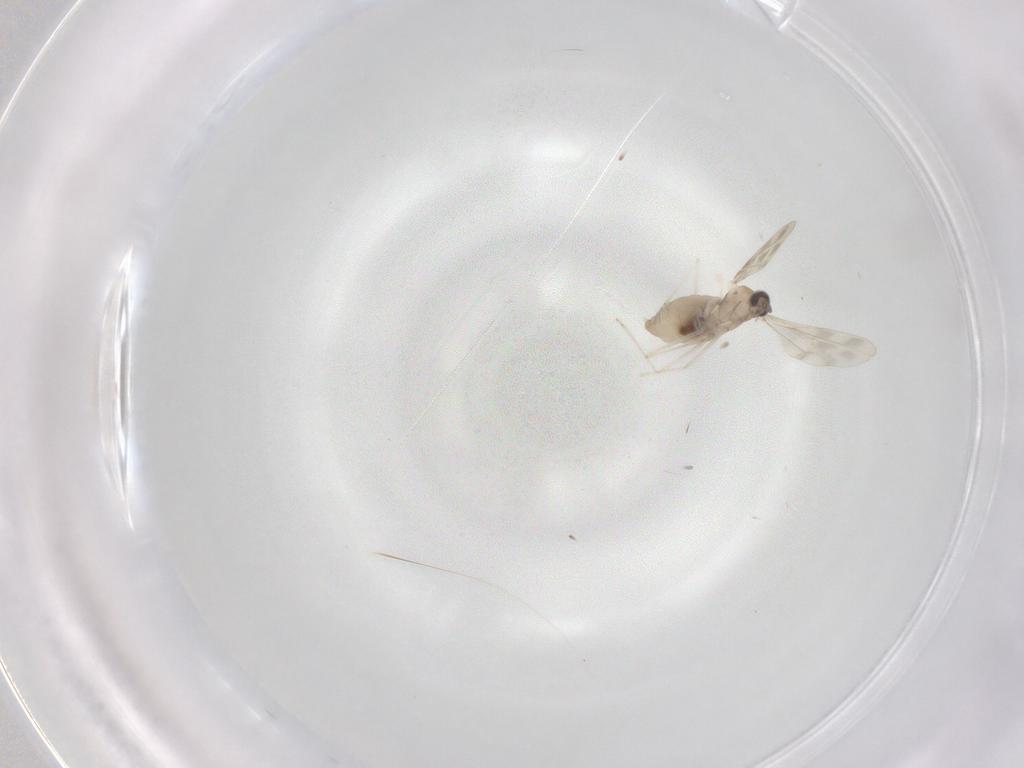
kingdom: Animalia
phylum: Arthropoda
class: Insecta
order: Diptera
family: Cecidomyiidae
